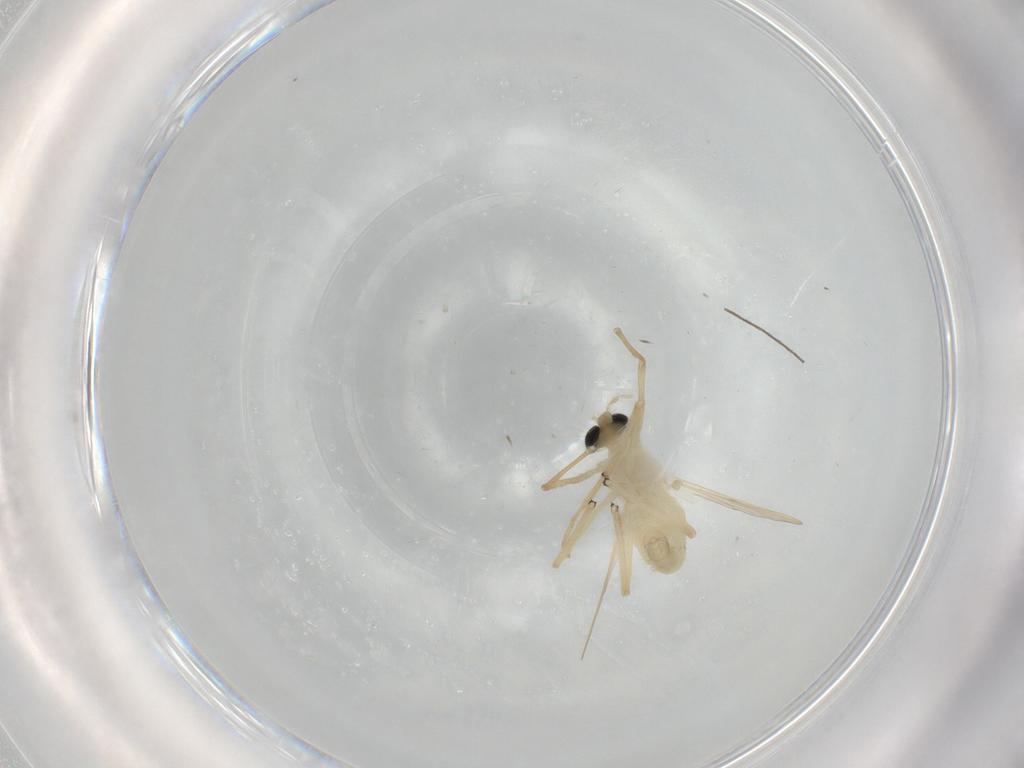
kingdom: Animalia
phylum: Arthropoda
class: Insecta
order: Diptera
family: Chironomidae
